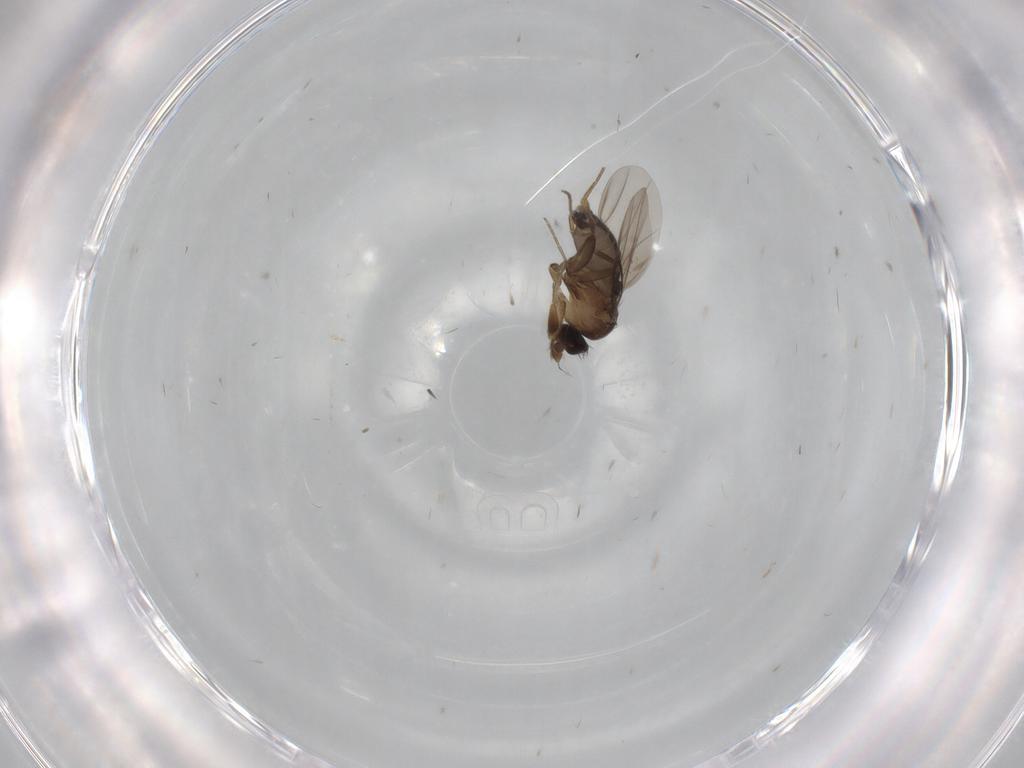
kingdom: Animalia
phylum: Arthropoda
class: Insecta
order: Diptera
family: Phoridae
